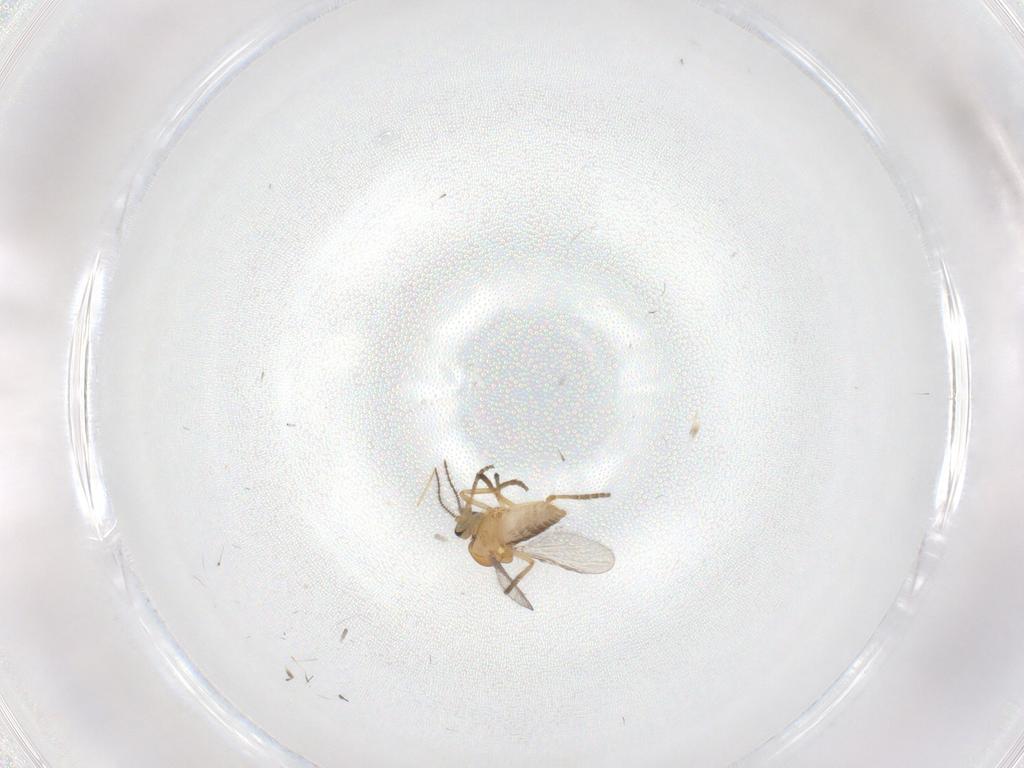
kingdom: Animalia
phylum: Arthropoda
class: Insecta
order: Diptera
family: Ceratopogonidae
